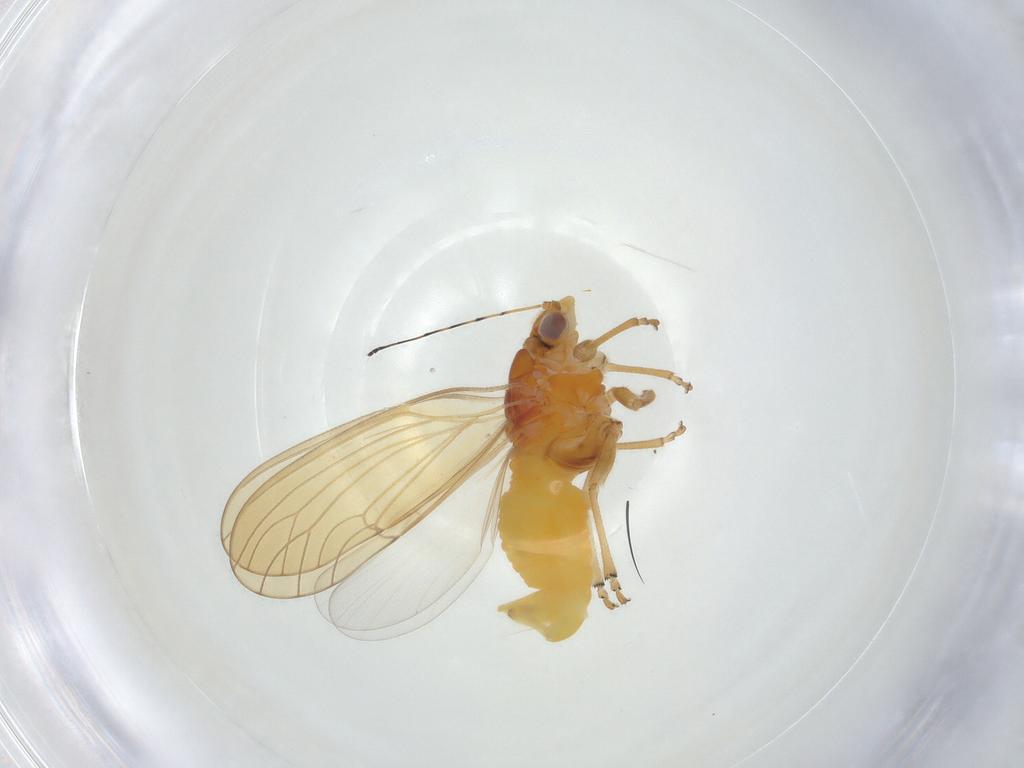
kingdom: Animalia
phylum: Arthropoda
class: Insecta
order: Hemiptera
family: Psylloidea_incertae_sedis
